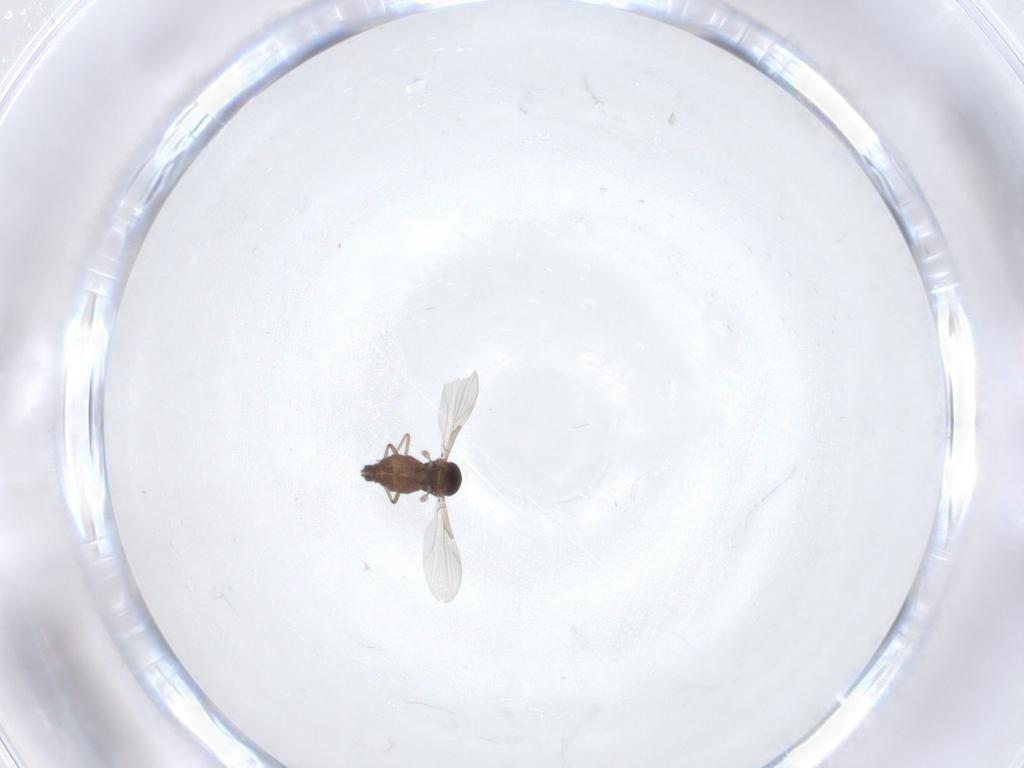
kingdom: Animalia
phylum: Arthropoda
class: Insecta
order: Diptera
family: Ceratopogonidae
